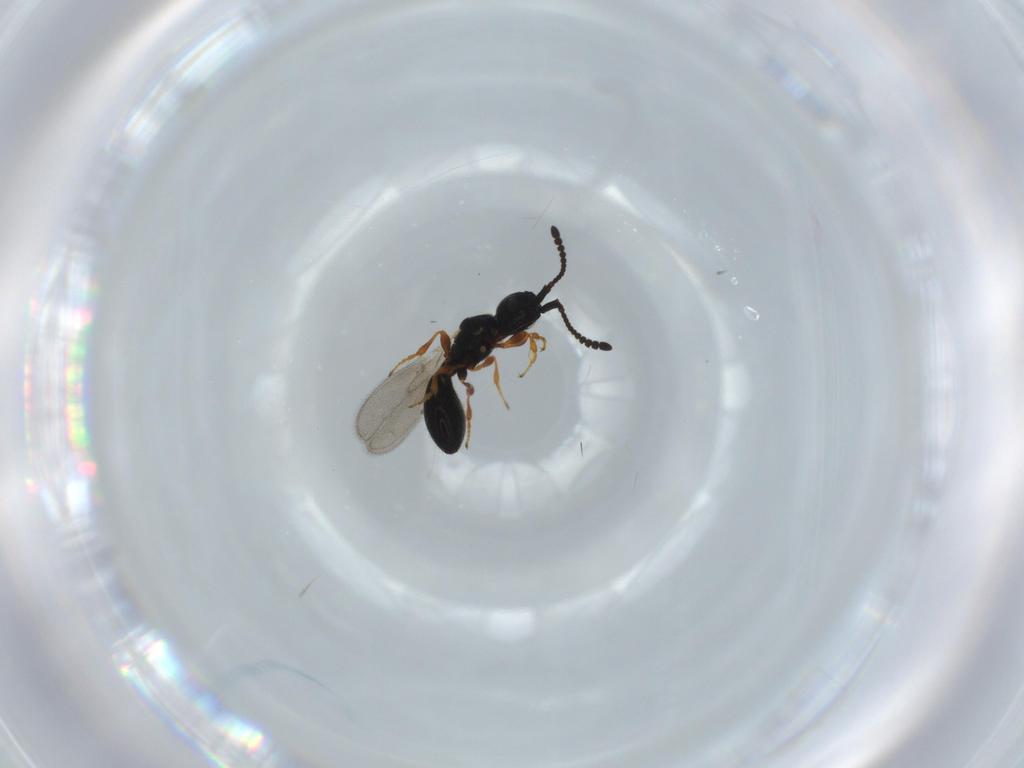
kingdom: Animalia
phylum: Arthropoda
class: Insecta
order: Hymenoptera
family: Diapriidae
